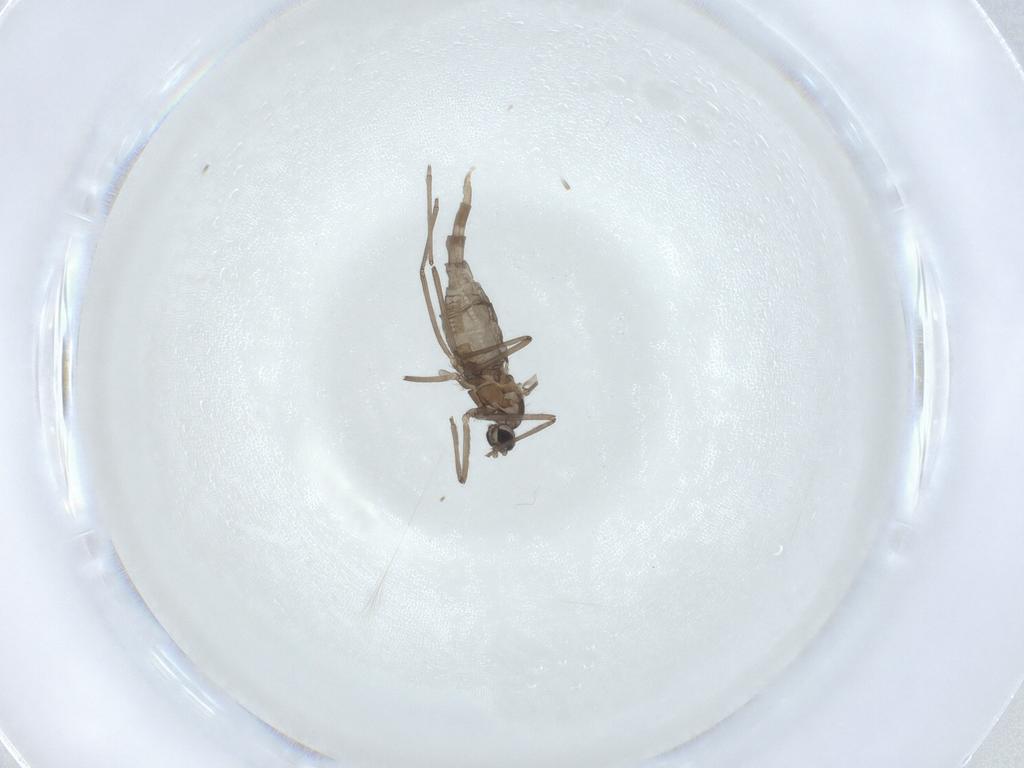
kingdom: Animalia
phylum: Arthropoda
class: Insecta
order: Diptera
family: Cecidomyiidae
